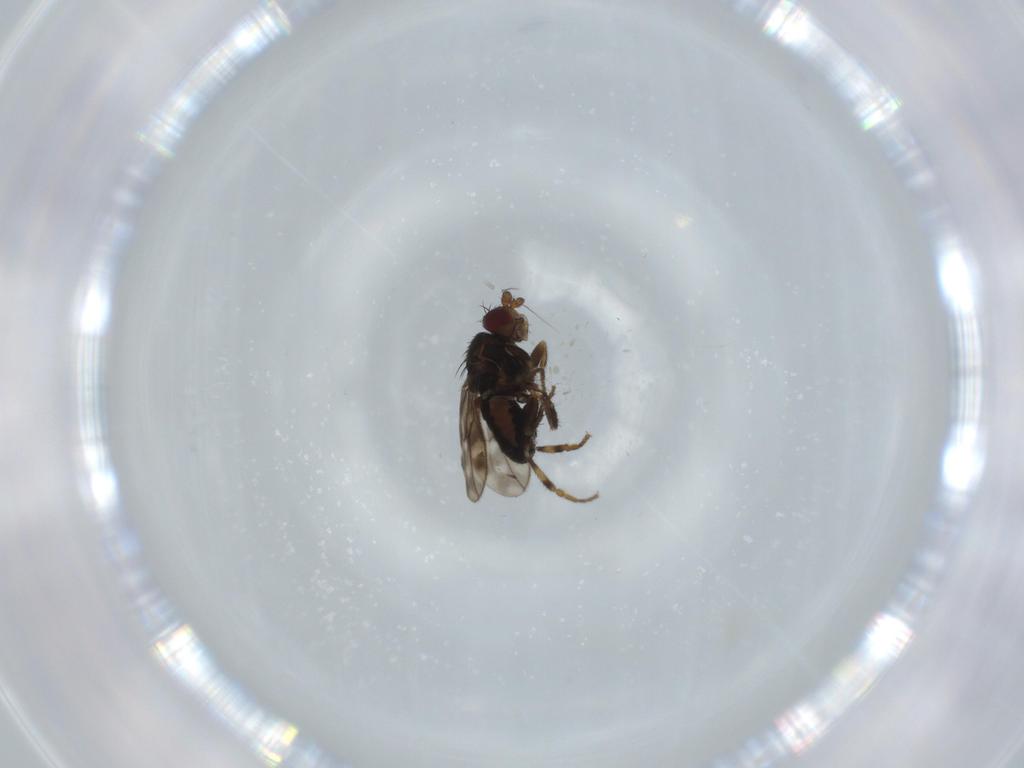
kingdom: Animalia
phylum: Arthropoda
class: Insecta
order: Diptera
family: Sphaeroceridae
